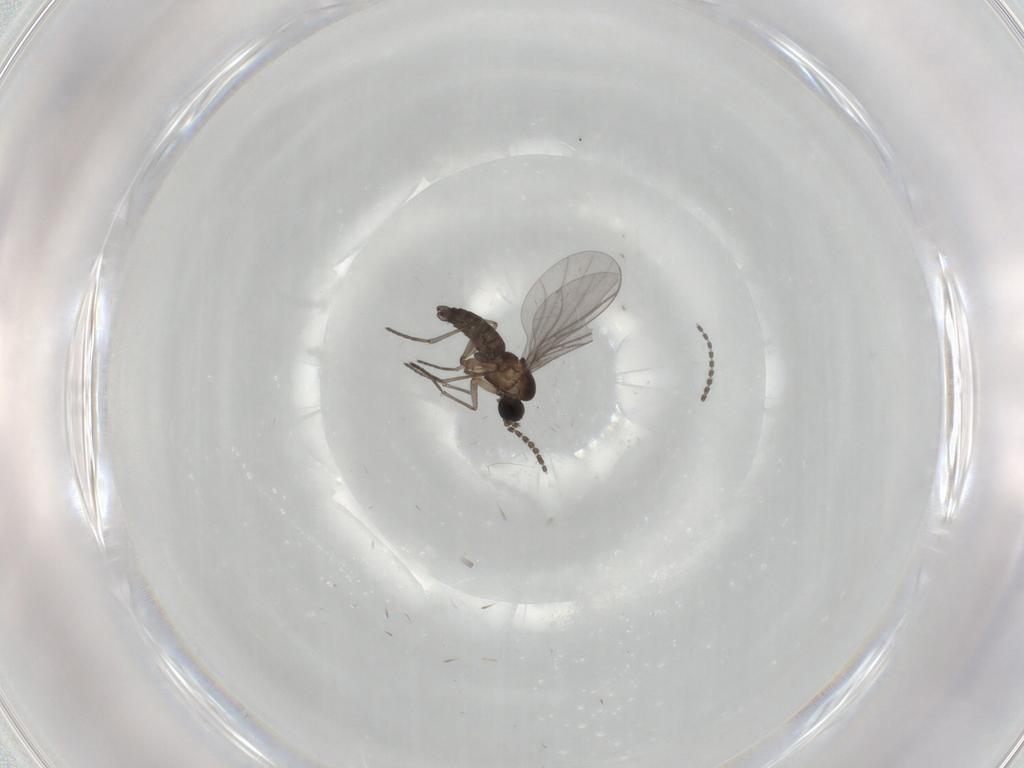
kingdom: Animalia
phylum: Arthropoda
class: Insecta
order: Diptera
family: Sciaridae
